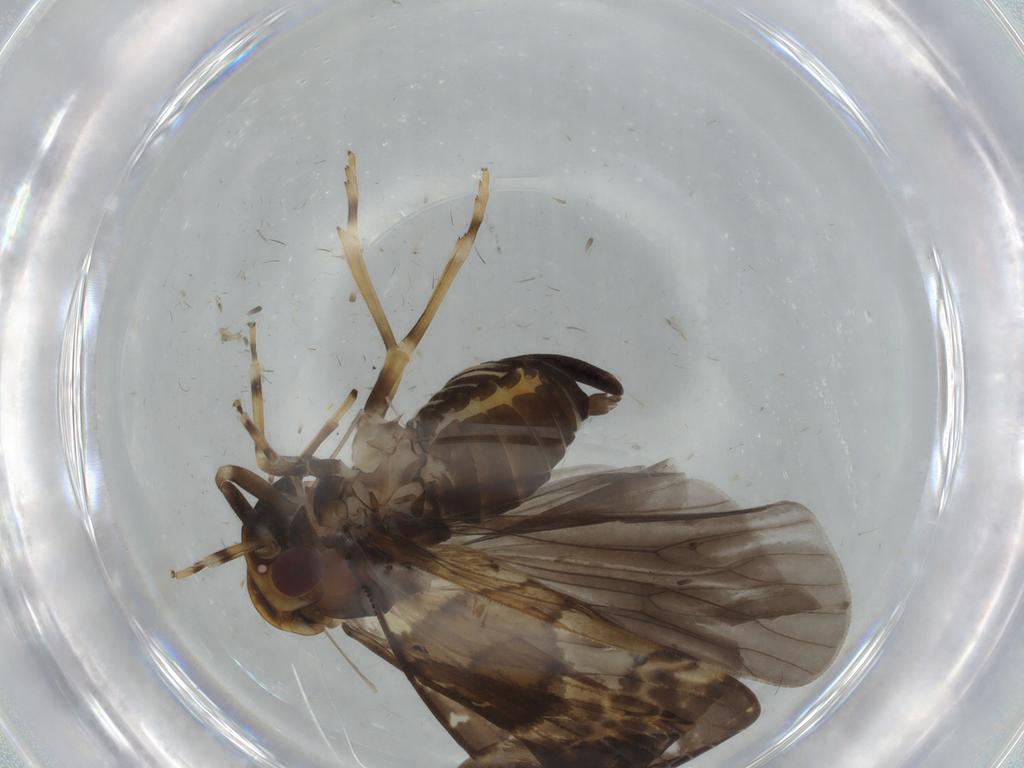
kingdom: Animalia
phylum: Arthropoda
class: Insecta
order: Hemiptera
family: Cixiidae
